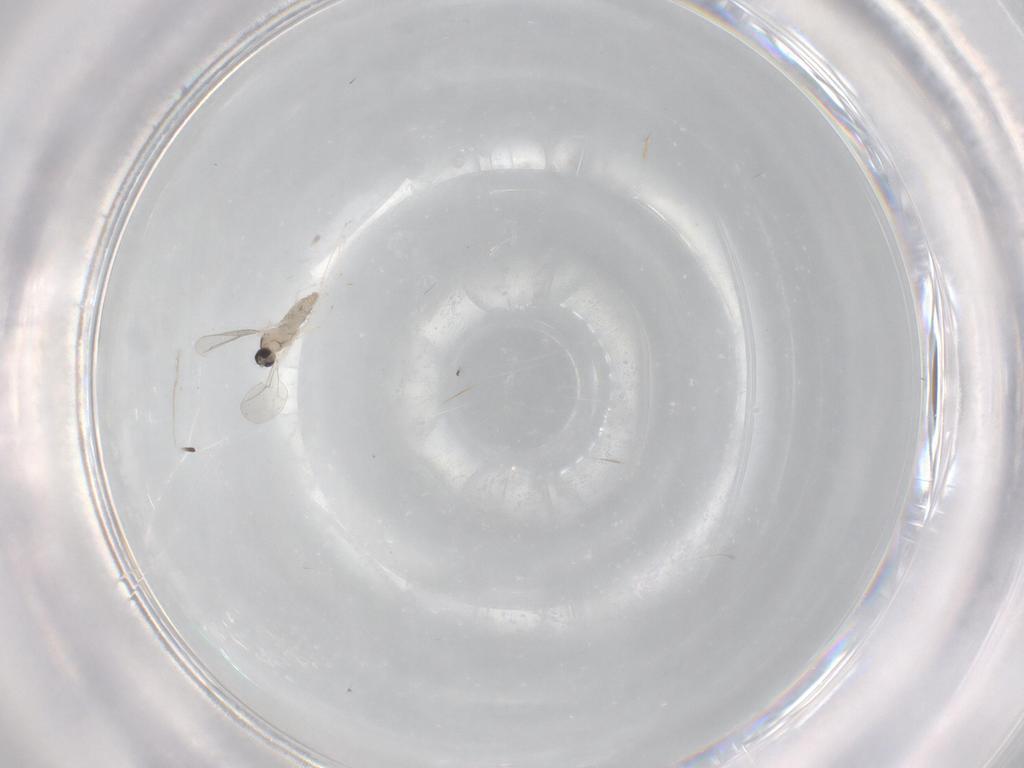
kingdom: Animalia
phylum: Arthropoda
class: Insecta
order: Diptera
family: Cecidomyiidae
